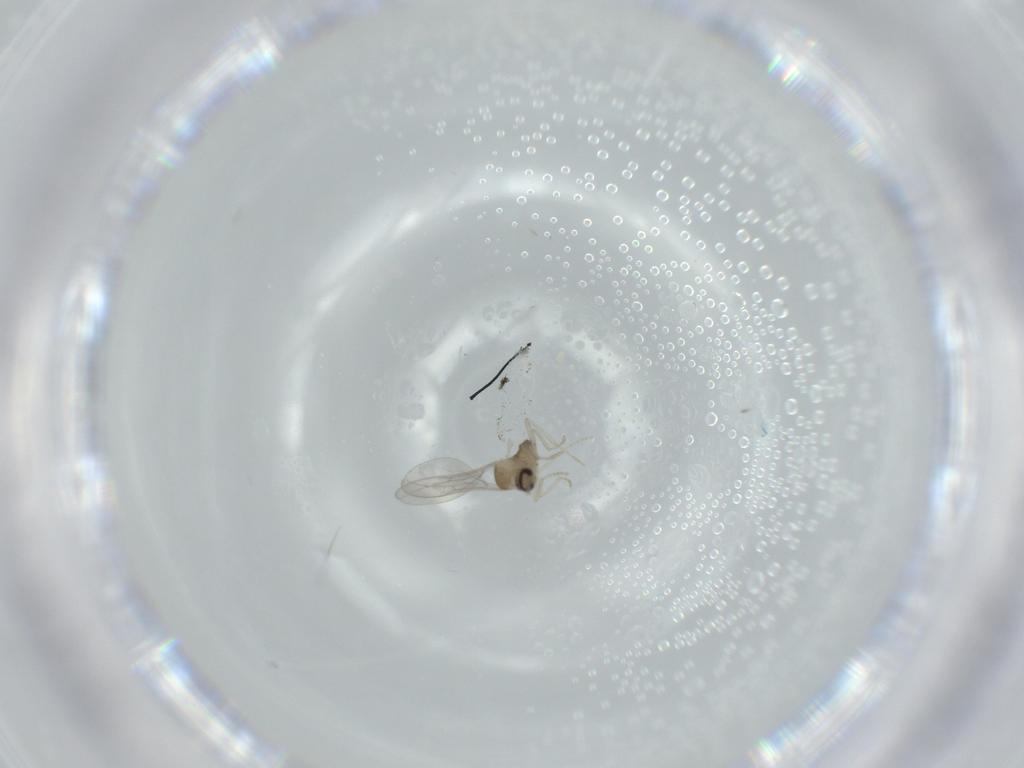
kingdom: Animalia
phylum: Arthropoda
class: Insecta
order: Diptera
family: Cecidomyiidae
